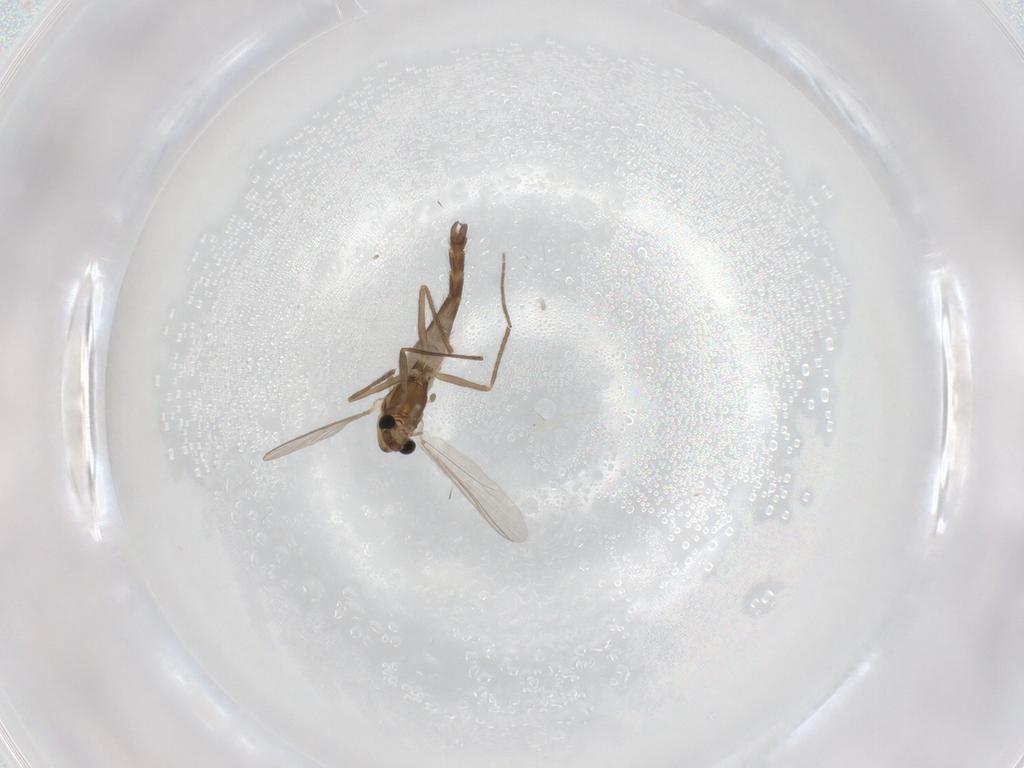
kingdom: Animalia
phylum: Arthropoda
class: Insecta
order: Diptera
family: Chironomidae
